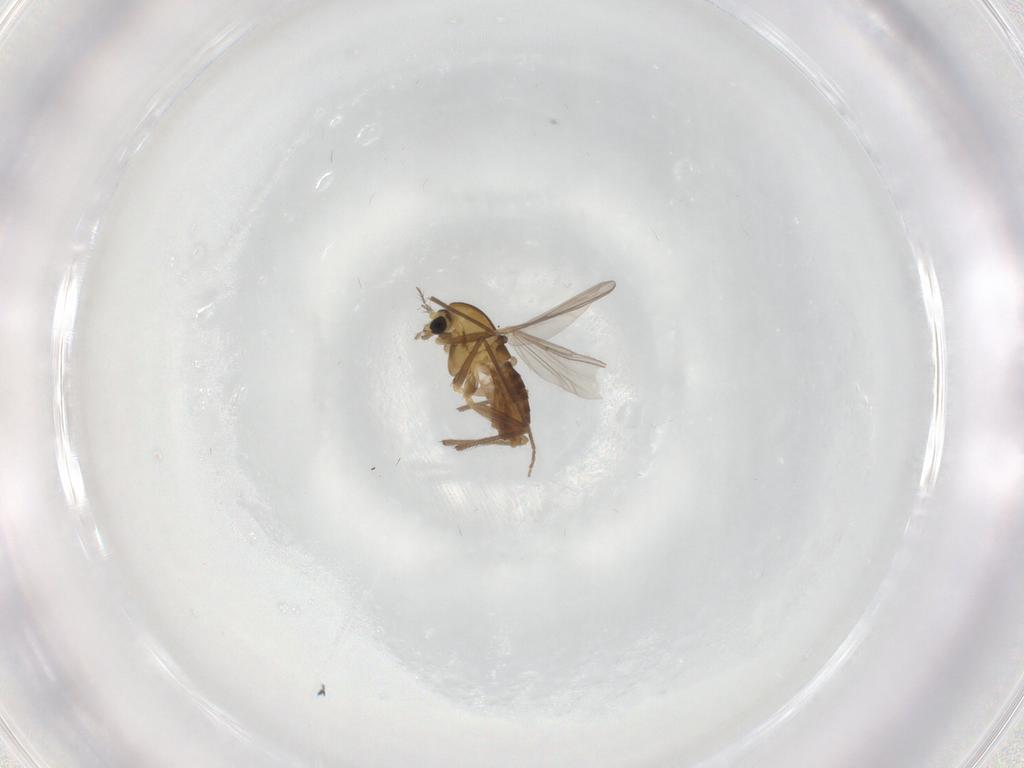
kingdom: Animalia
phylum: Arthropoda
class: Insecta
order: Diptera
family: Chironomidae
